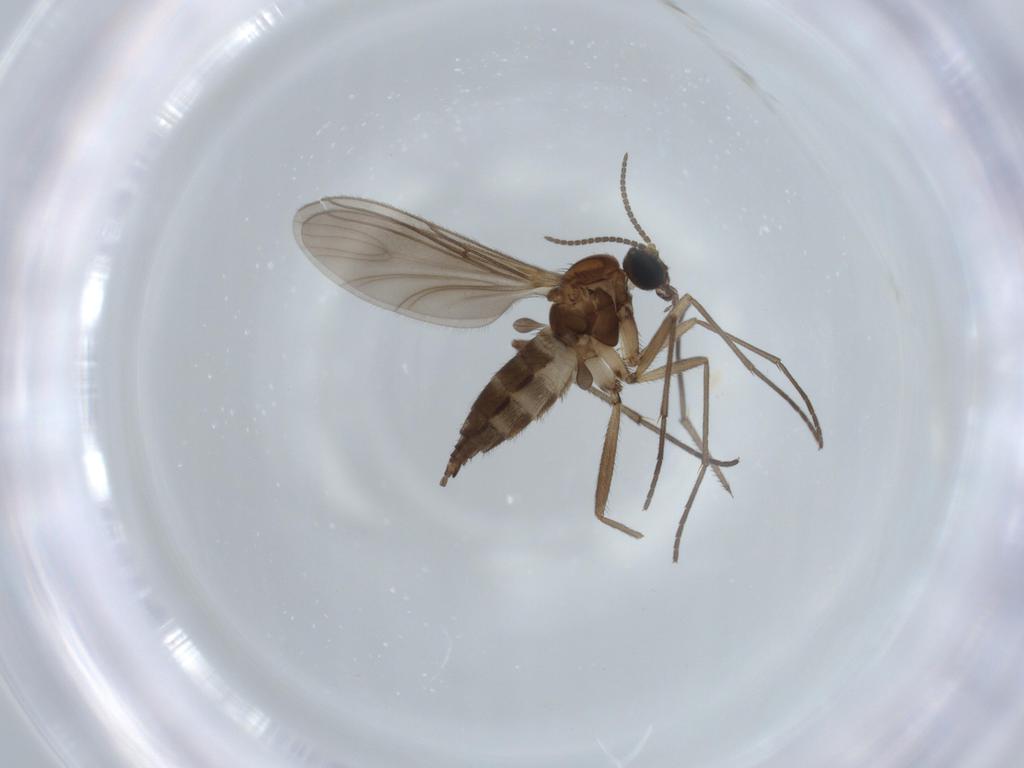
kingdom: Animalia
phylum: Arthropoda
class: Insecta
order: Diptera
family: Sciaridae
